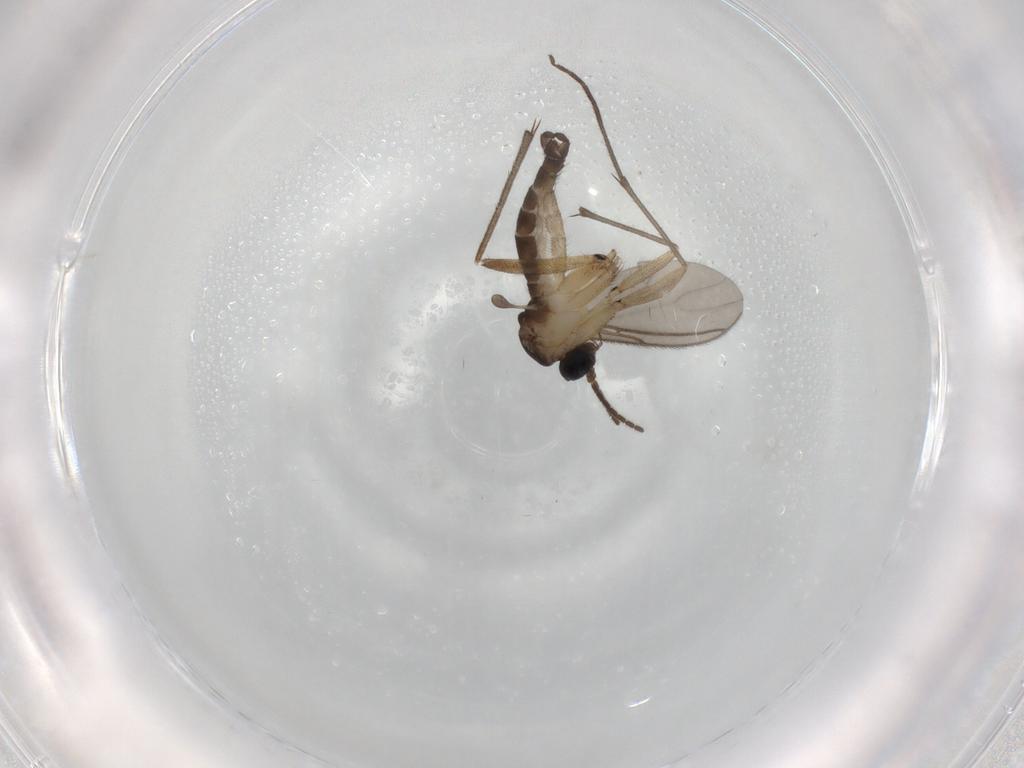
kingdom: Animalia
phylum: Arthropoda
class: Insecta
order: Diptera
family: Sciaridae
